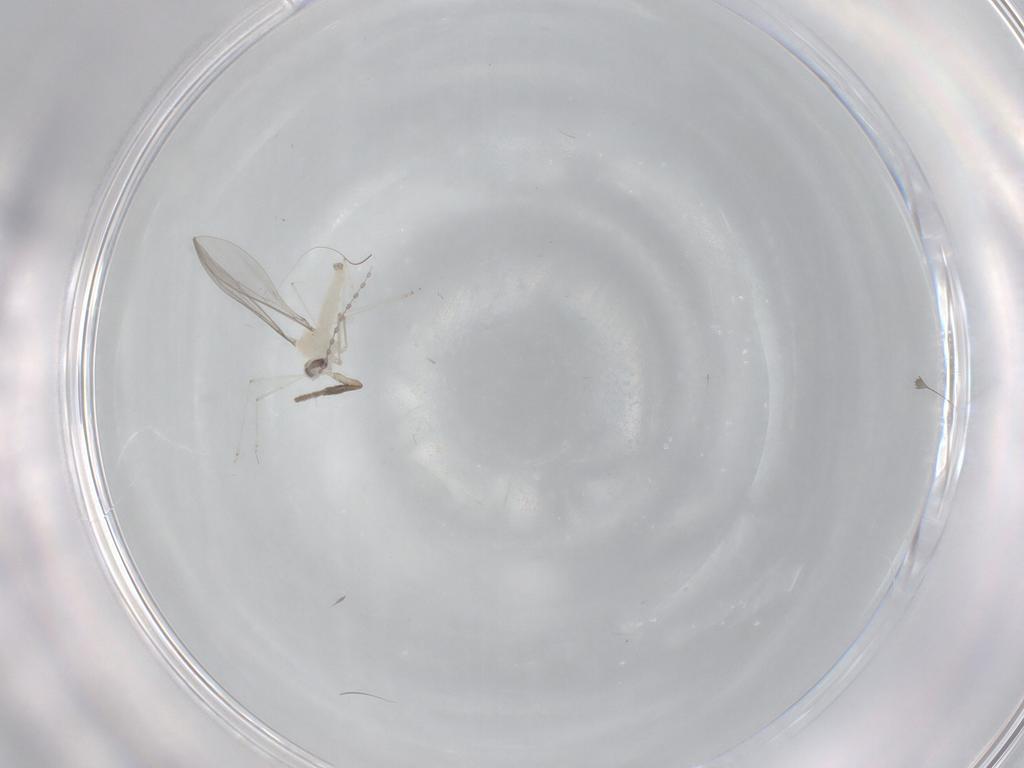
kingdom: Animalia
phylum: Arthropoda
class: Insecta
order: Diptera
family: Cecidomyiidae
